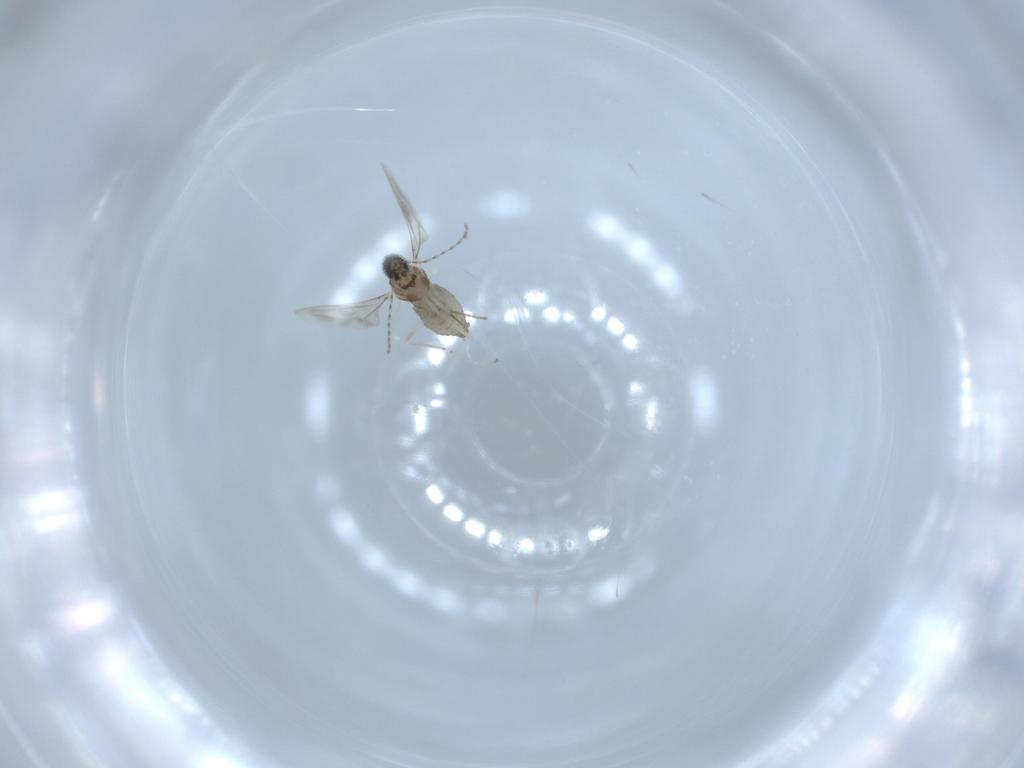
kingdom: Animalia
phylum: Arthropoda
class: Insecta
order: Diptera
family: Cecidomyiidae
